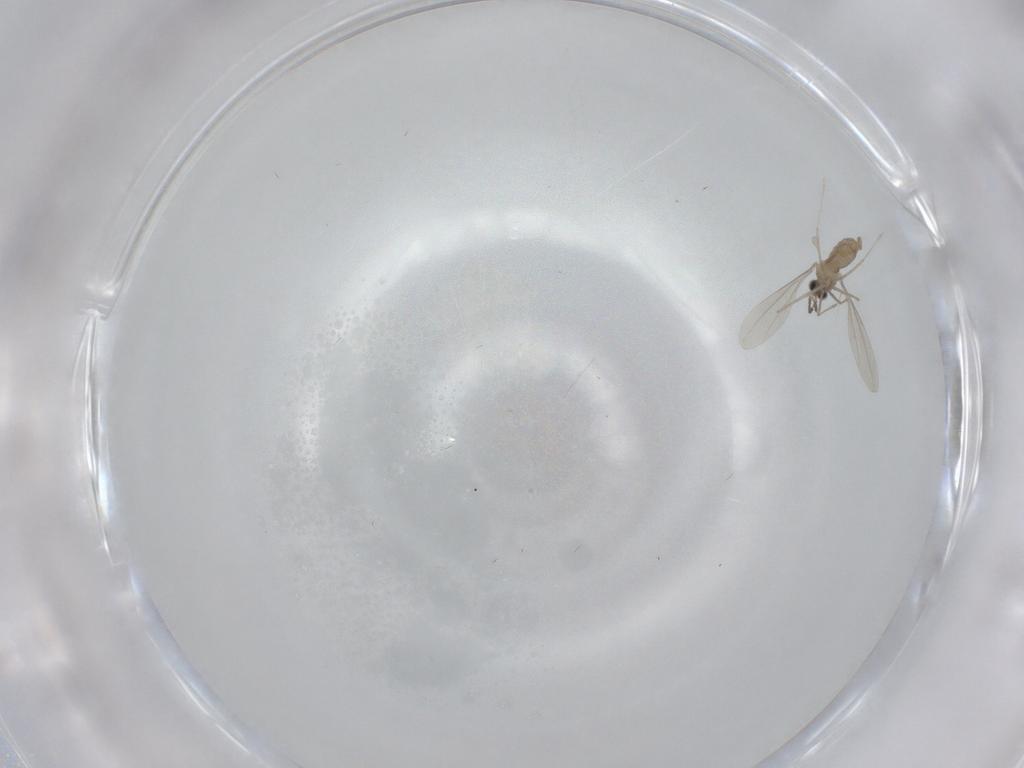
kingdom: Animalia
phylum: Arthropoda
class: Insecta
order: Diptera
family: Cecidomyiidae
